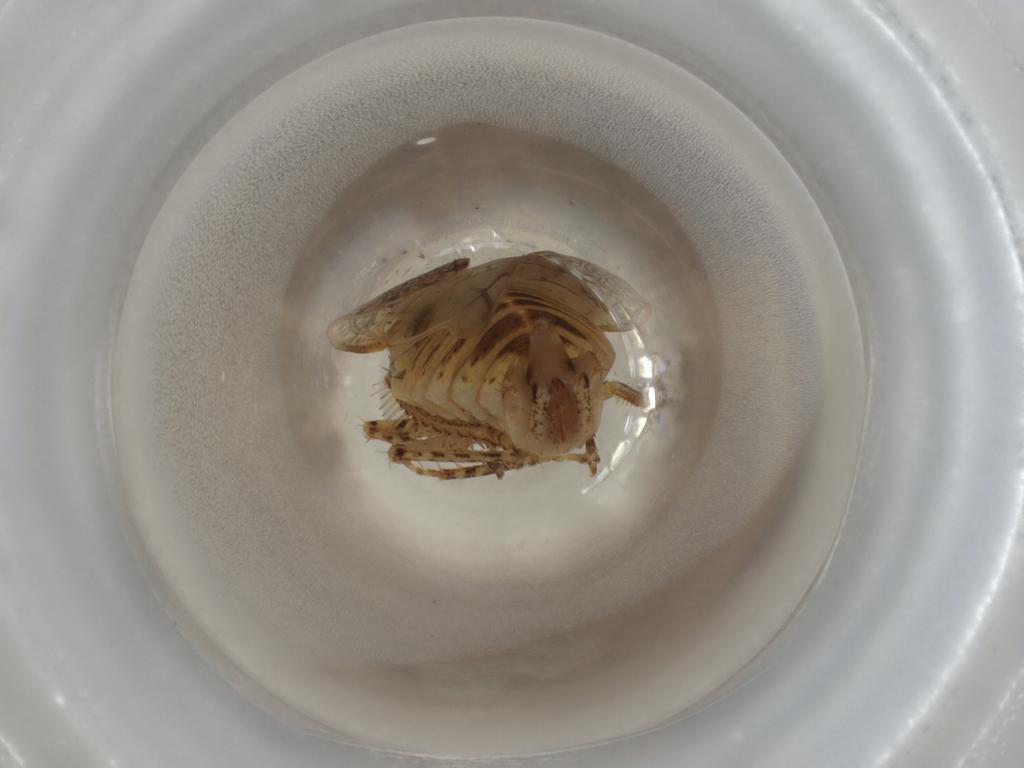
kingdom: Animalia
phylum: Arthropoda
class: Insecta
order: Hemiptera
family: Cicadellidae
